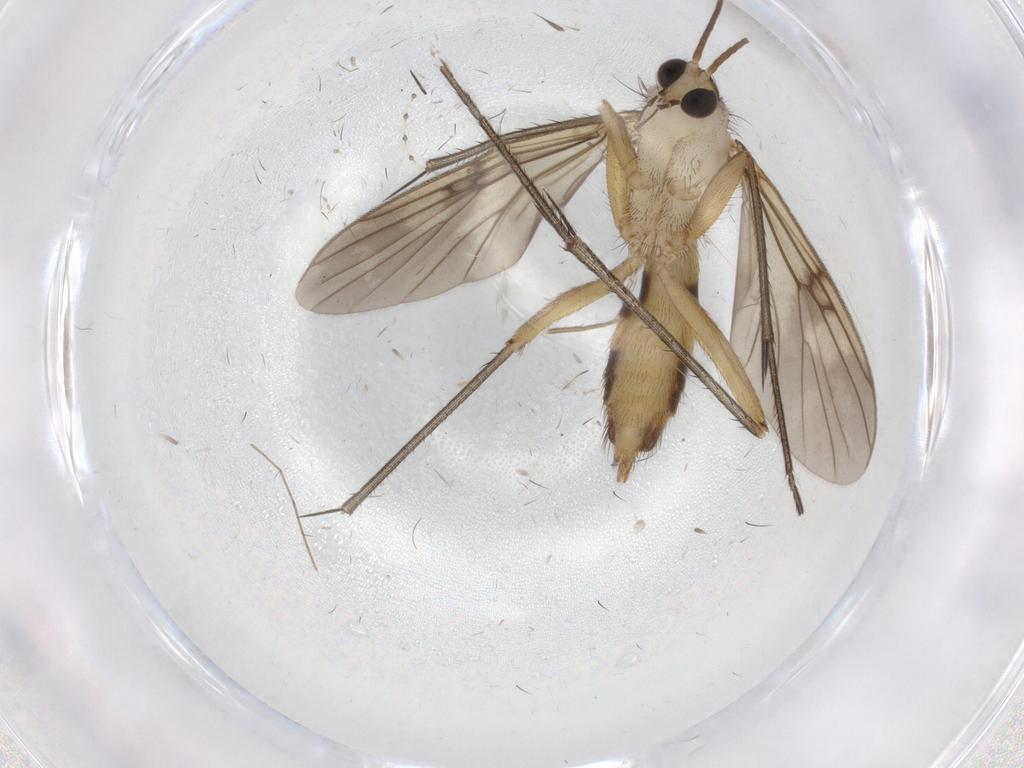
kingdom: Animalia
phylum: Arthropoda
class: Insecta
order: Diptera
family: Mycetophilidae
